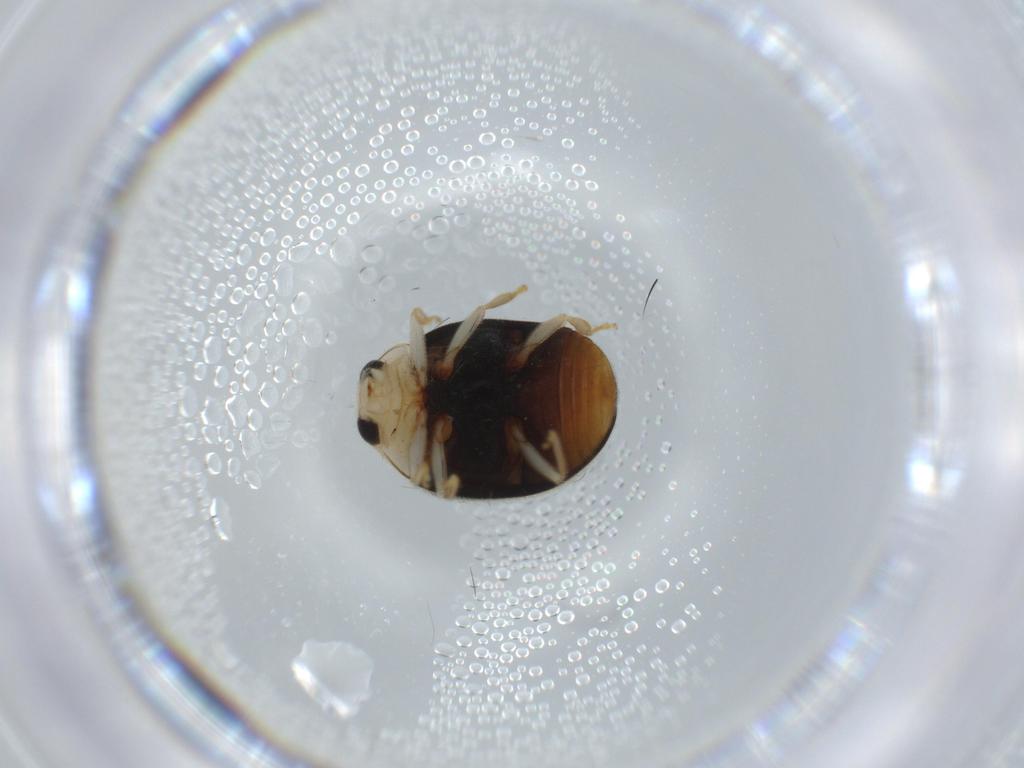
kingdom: Animalia
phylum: Arthropoda
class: Insecta
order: Coleoptera
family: Coccinellidae
